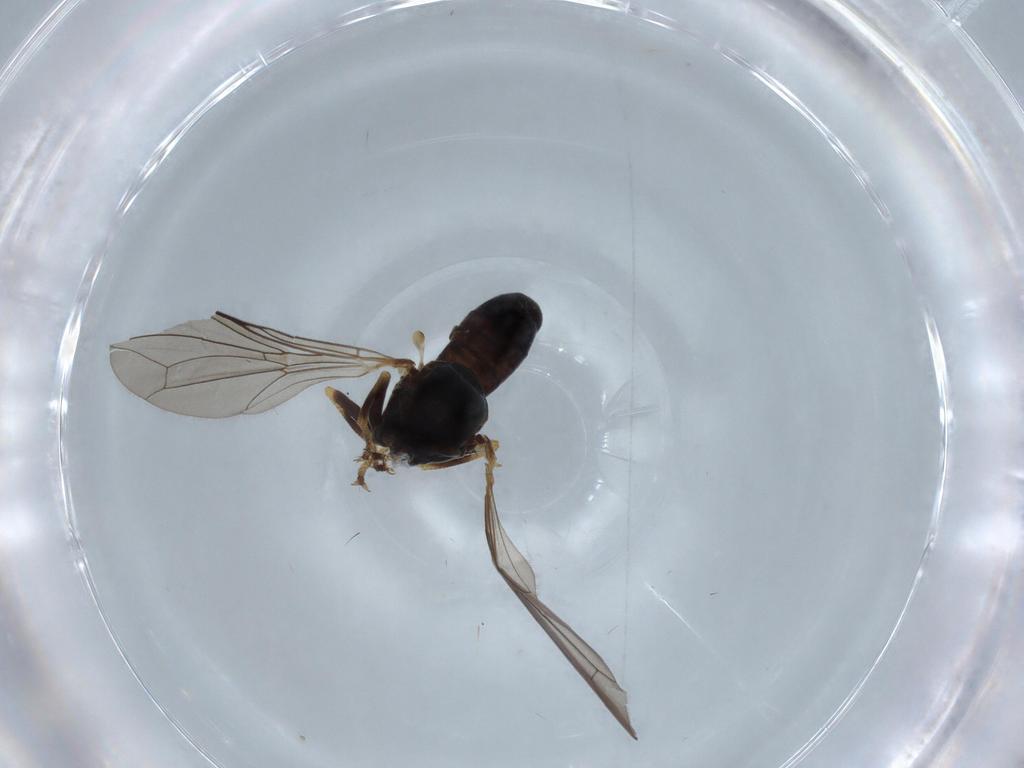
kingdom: Animalia
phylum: Arthropoda
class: Insecta
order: Diptera
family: Pipunculidae
